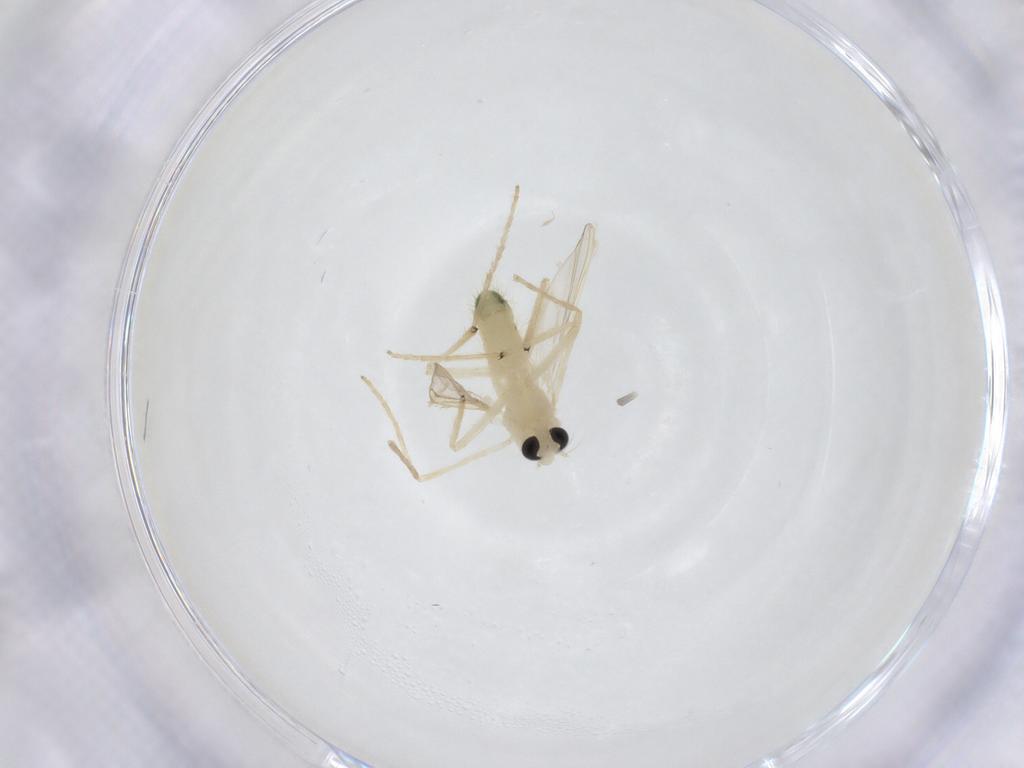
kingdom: Animalia
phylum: Arthropoda
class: Insecta
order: Diptera
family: Chironomidae
